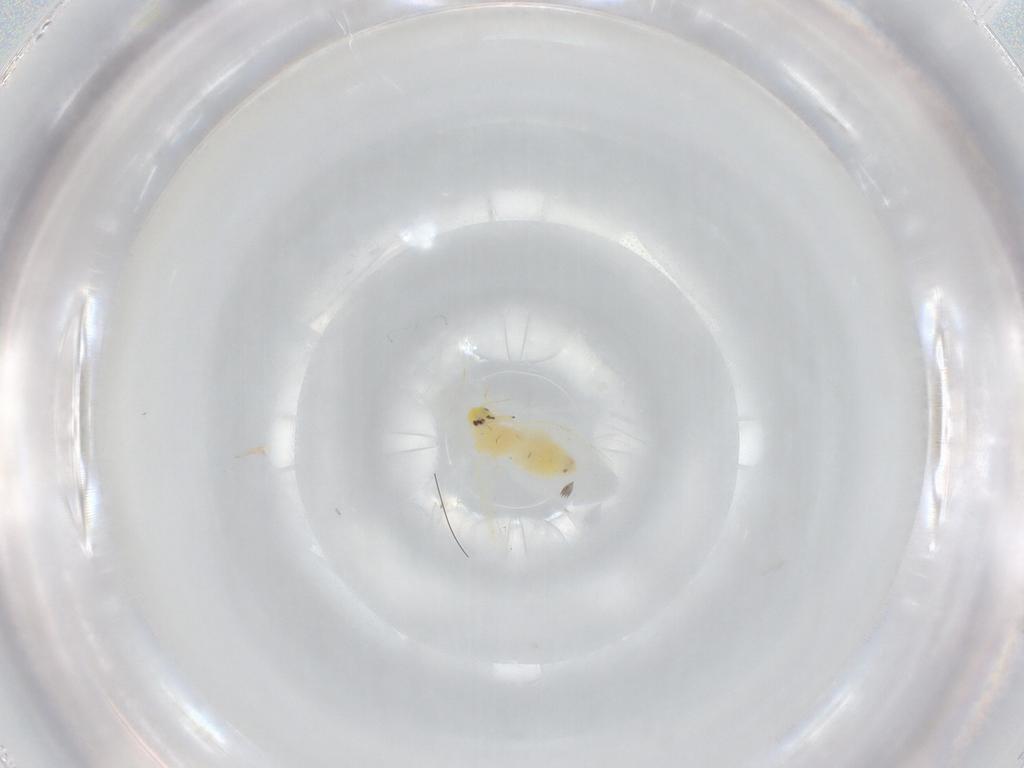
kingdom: Animalia
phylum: Arthropoda
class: Insecta
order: Hemiptera
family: Aleyrodidae
